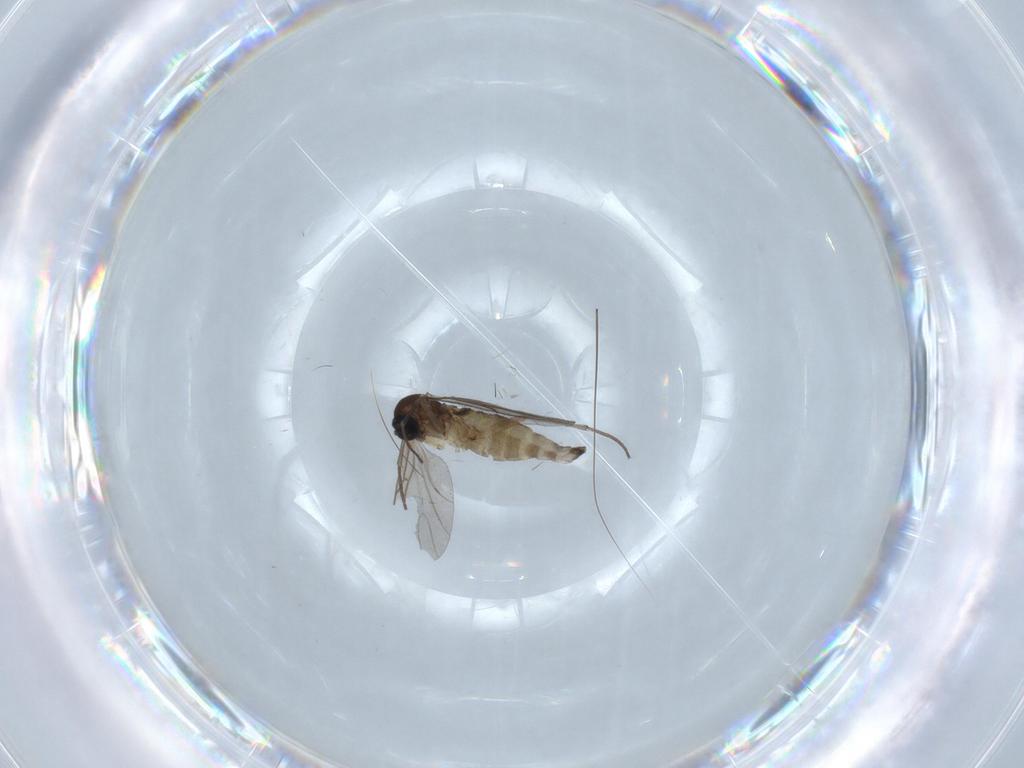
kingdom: Animalia
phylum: Arthropoda
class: Insecta
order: Diptera
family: Sciaridae
